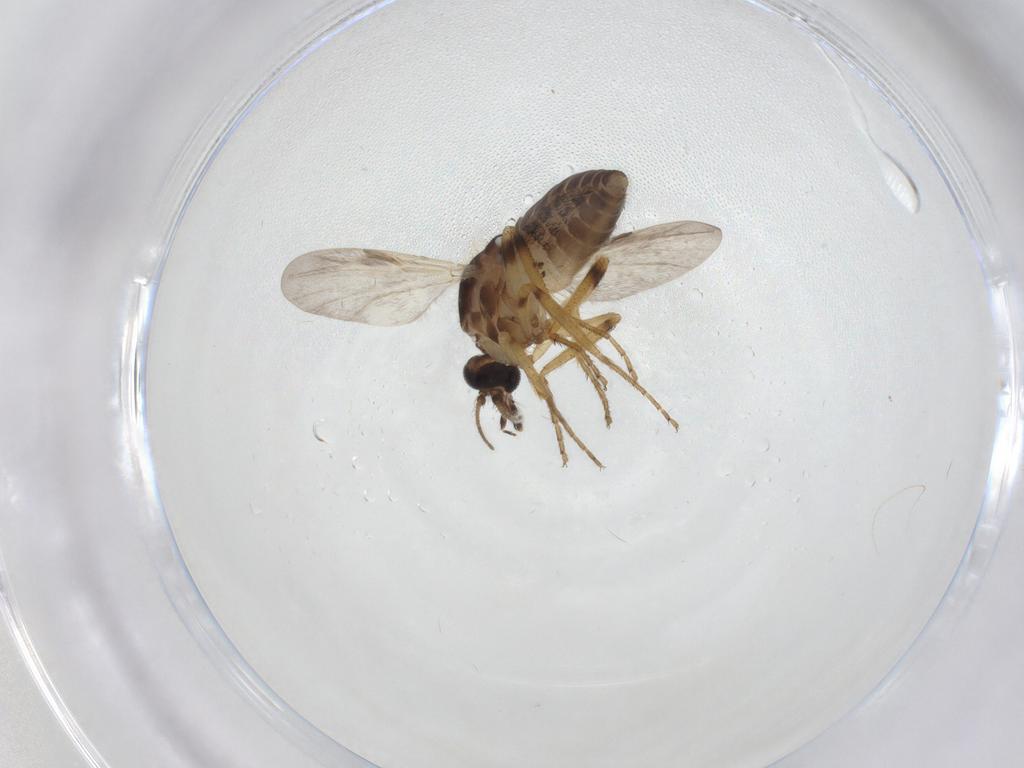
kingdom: Animalia
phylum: Arthropoda
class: Insecta
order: Diptera
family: Ceratopogonidae
